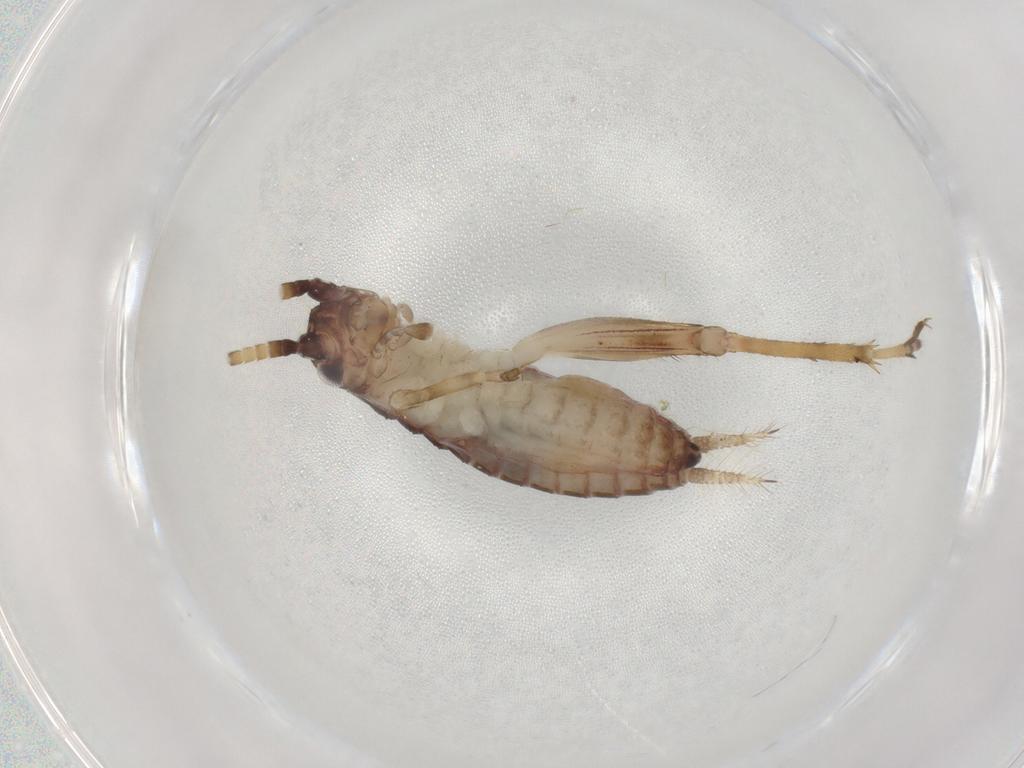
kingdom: Animalia
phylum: Arthropoda
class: Insecta
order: Orthoptera
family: Gryllidae
